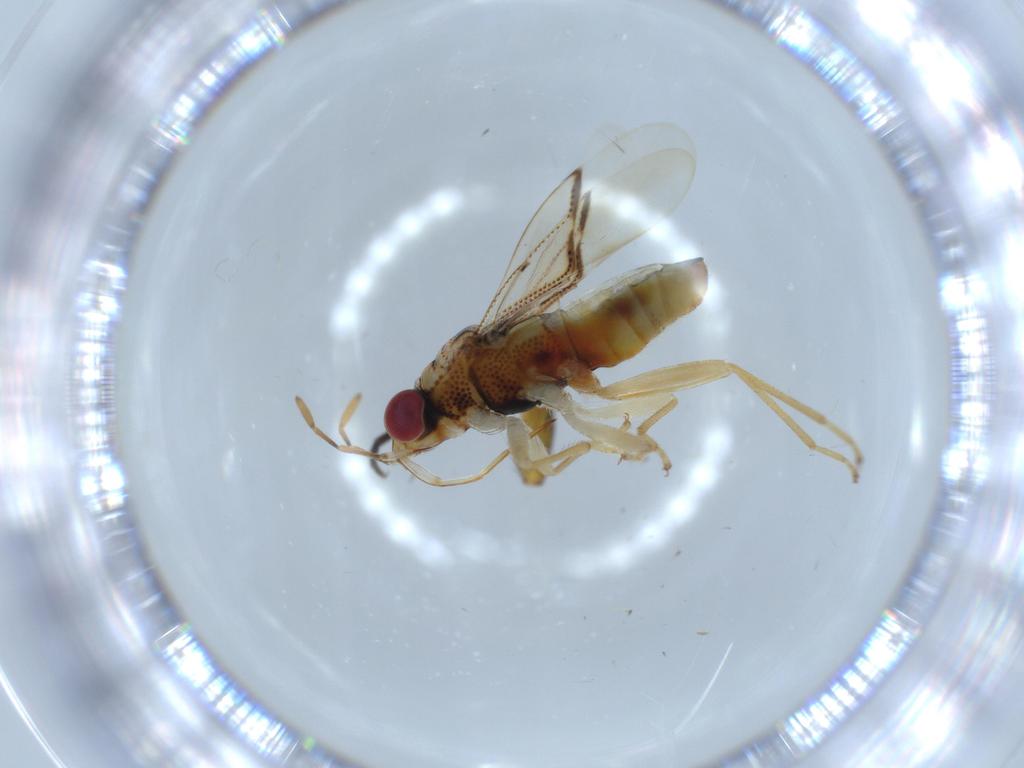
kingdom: Animalia
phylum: Arthropoda
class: Insecta
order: Hemiptera
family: Geocoridae
